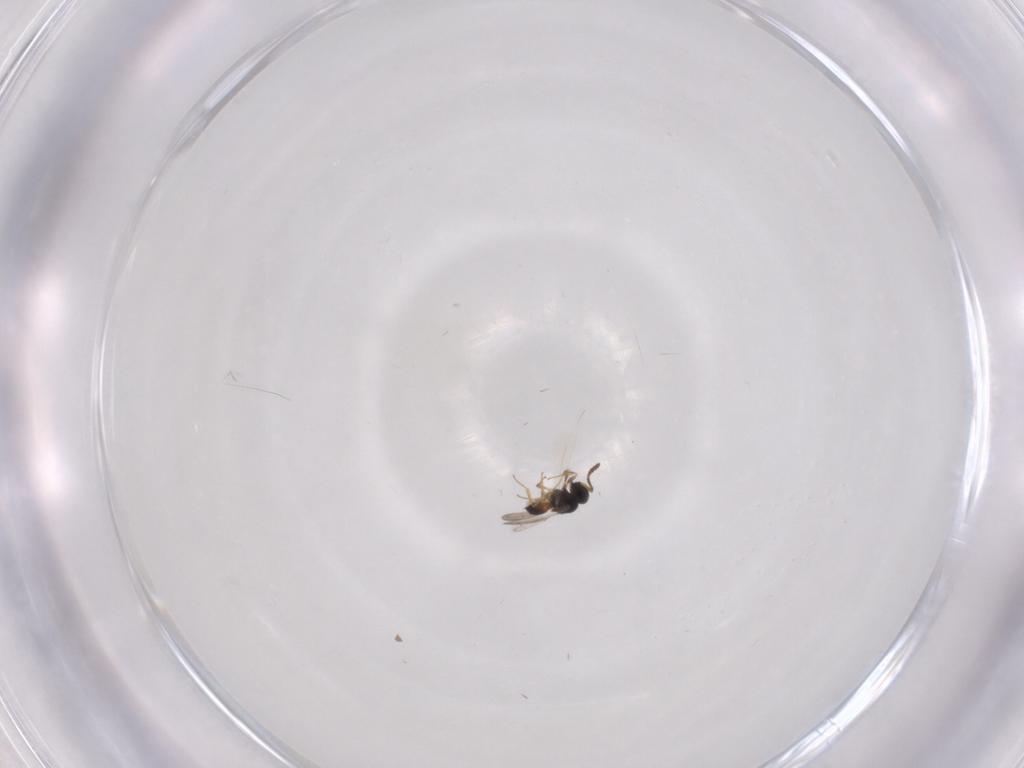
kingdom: Animalia
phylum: Arthropoda
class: Insecta
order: Hymenoptera
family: Scelionidae
